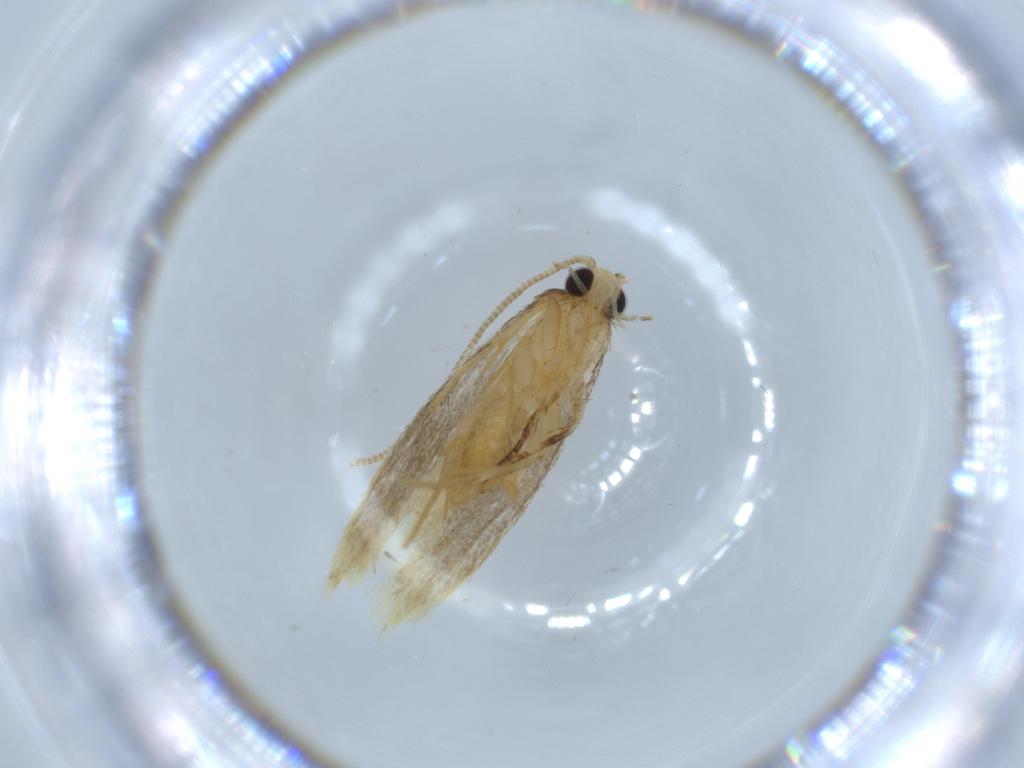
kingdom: Animalia
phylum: Arthropoda
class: Insecta
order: Lepidoptera
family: Tineidae
